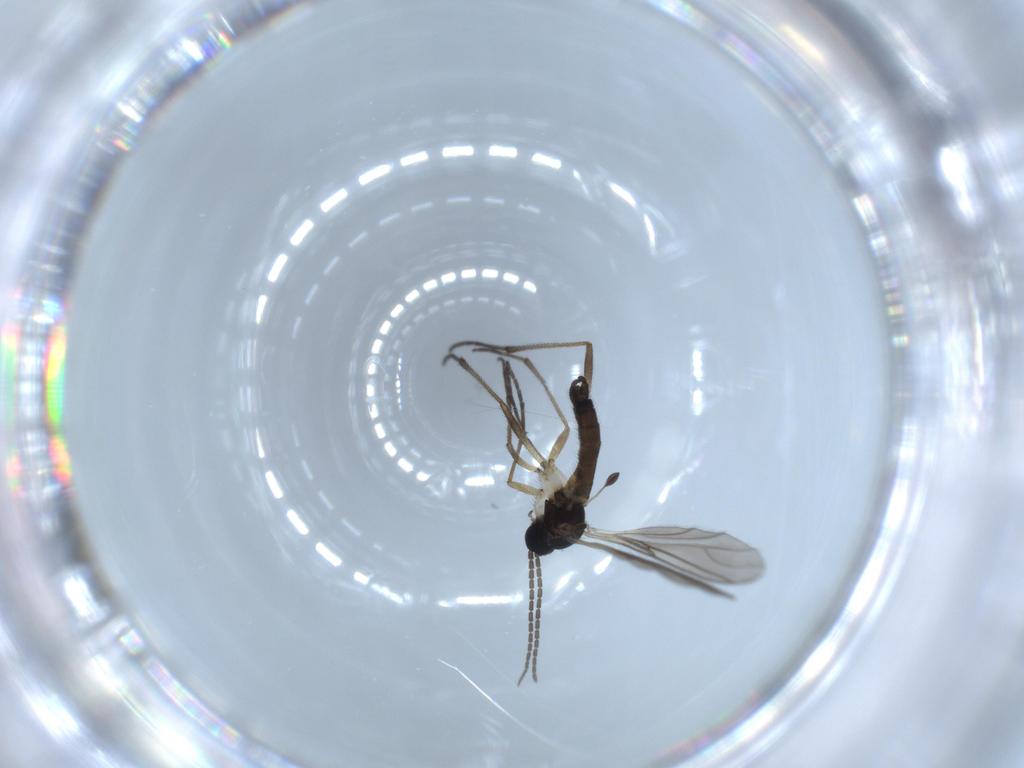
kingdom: Animalia
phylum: Arthropoda
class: Insecta
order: Diptera
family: Sciaridae
